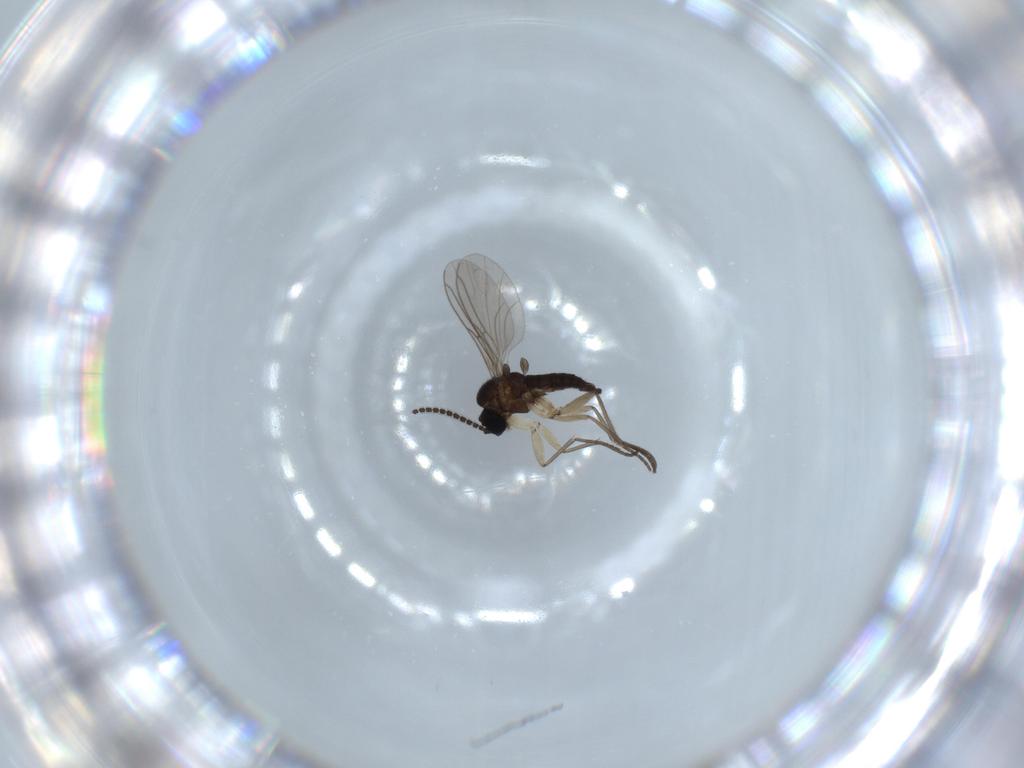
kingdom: Animalia
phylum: Arthropoda
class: Insecta
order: Diptera
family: Sciaridae
